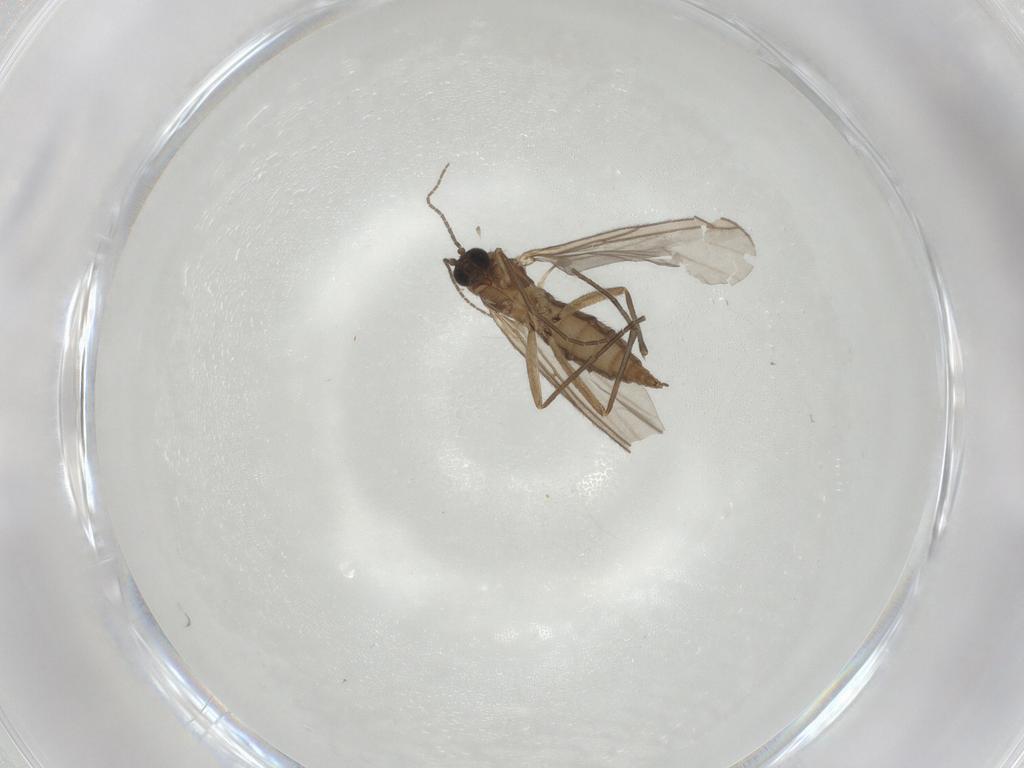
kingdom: Animalia
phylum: Arthropoda
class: Insecta
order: Diptera
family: Sciaridae
